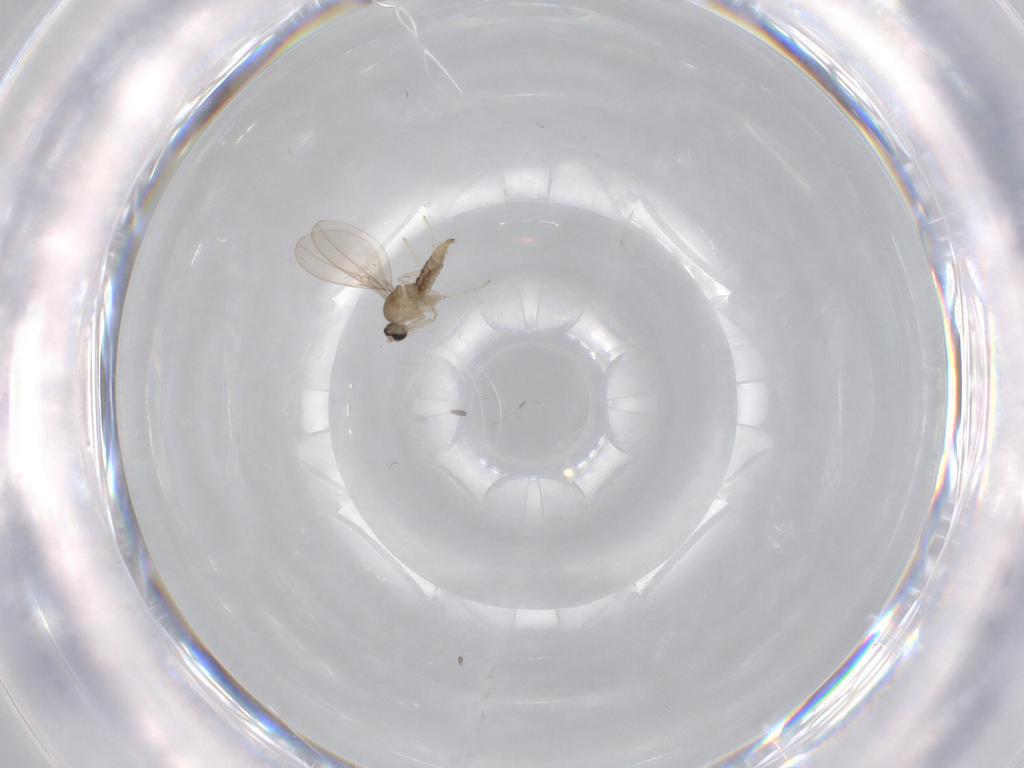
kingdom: Animalia
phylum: Arthropoda
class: Insecta
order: Diptera
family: Cecidomyiidae
